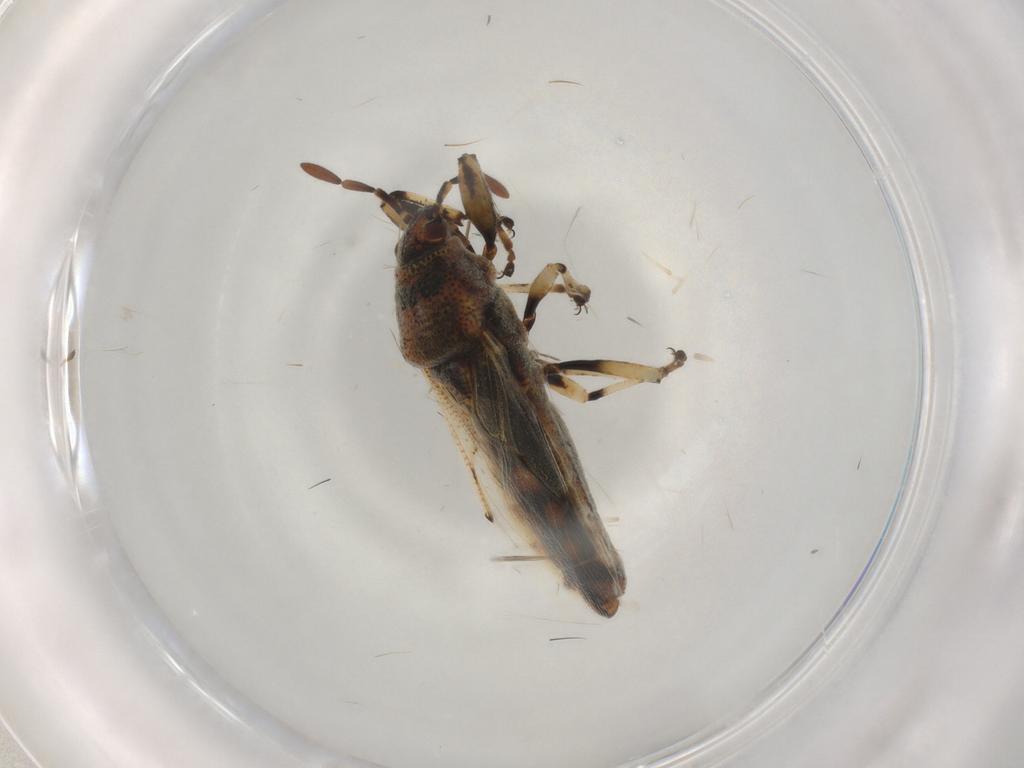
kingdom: Animalia
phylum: Arthropoda
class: Insecta
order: Hemiptera
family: Pachygronthidae
